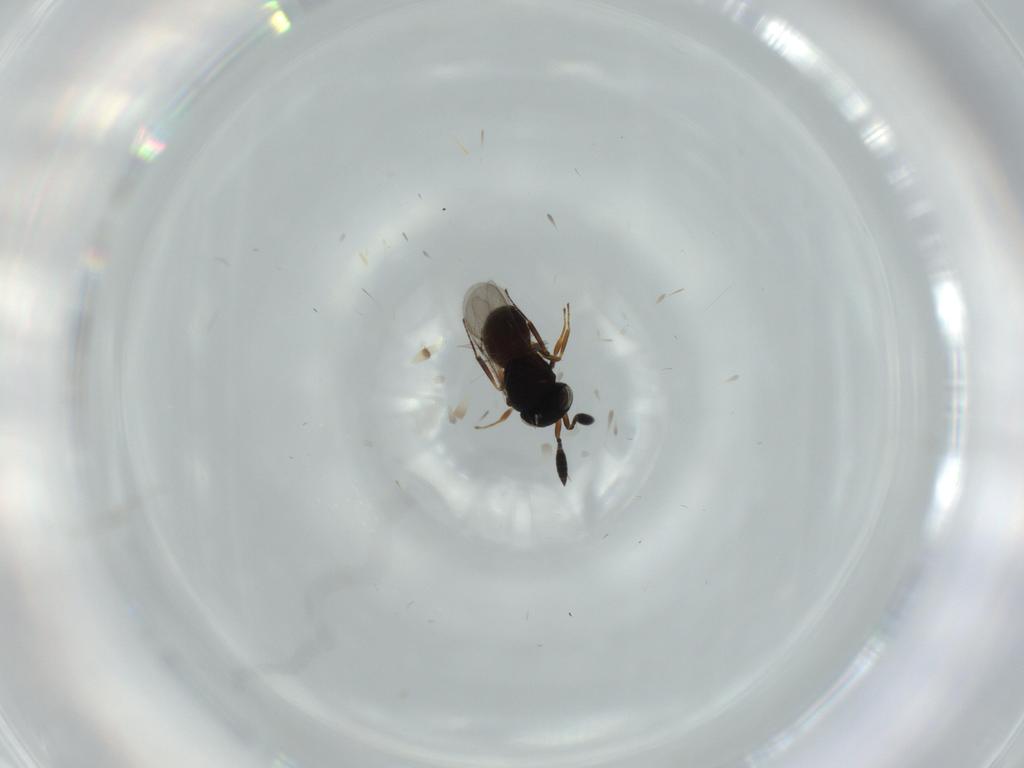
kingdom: Animalia
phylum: Arthropoda
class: Insecta
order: Hymenoptera
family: Scelionidae
